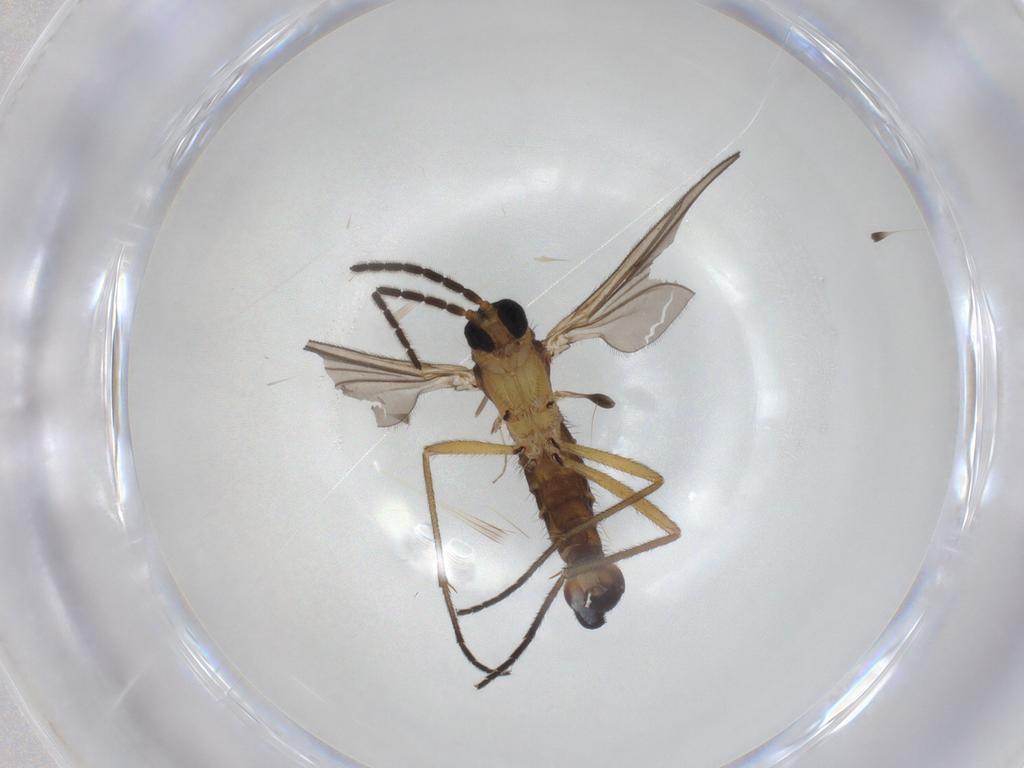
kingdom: Animalia
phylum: Arthropoda
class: Insecta
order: Diptera
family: Sciaridae
